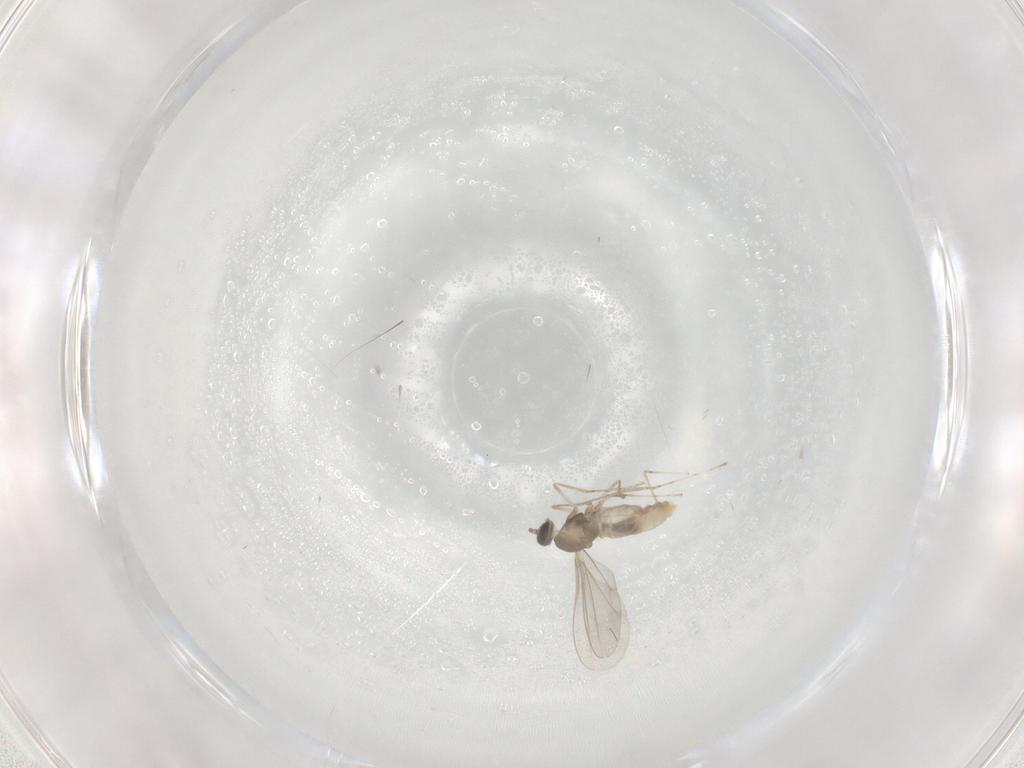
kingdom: Animalia
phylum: Arthropoda
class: Insecta
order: Diptera
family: Cecidomyiidae
